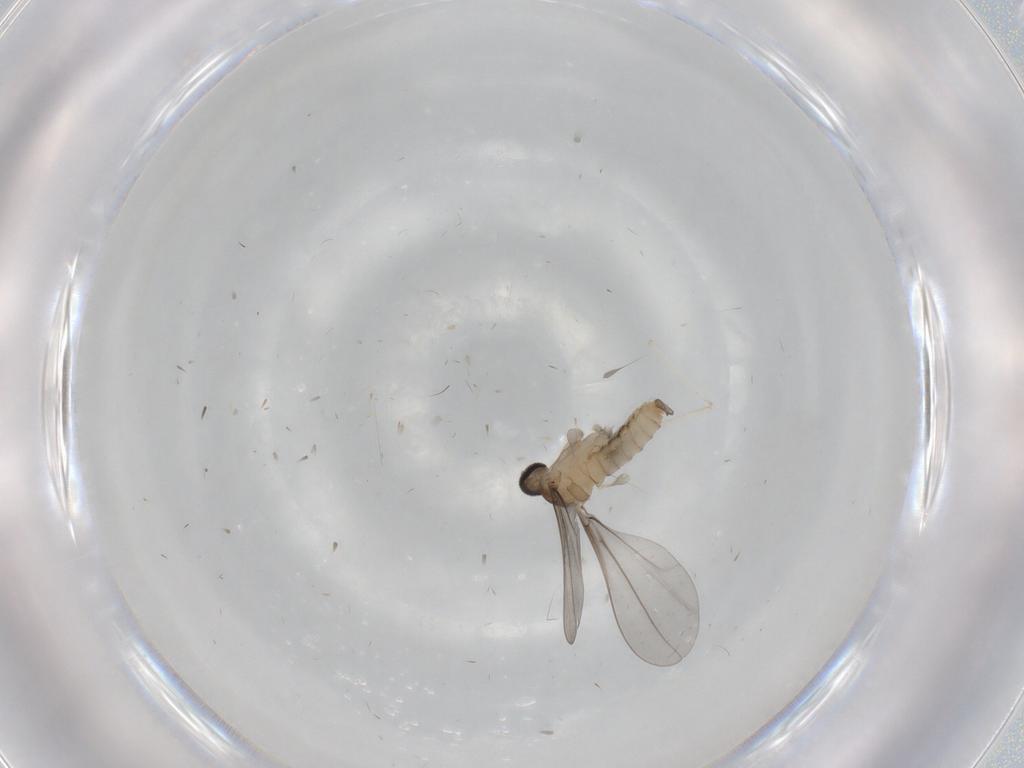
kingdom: Animalia
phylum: Arthropoda
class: Insecta
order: Diptera
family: Cecidomyiidae
